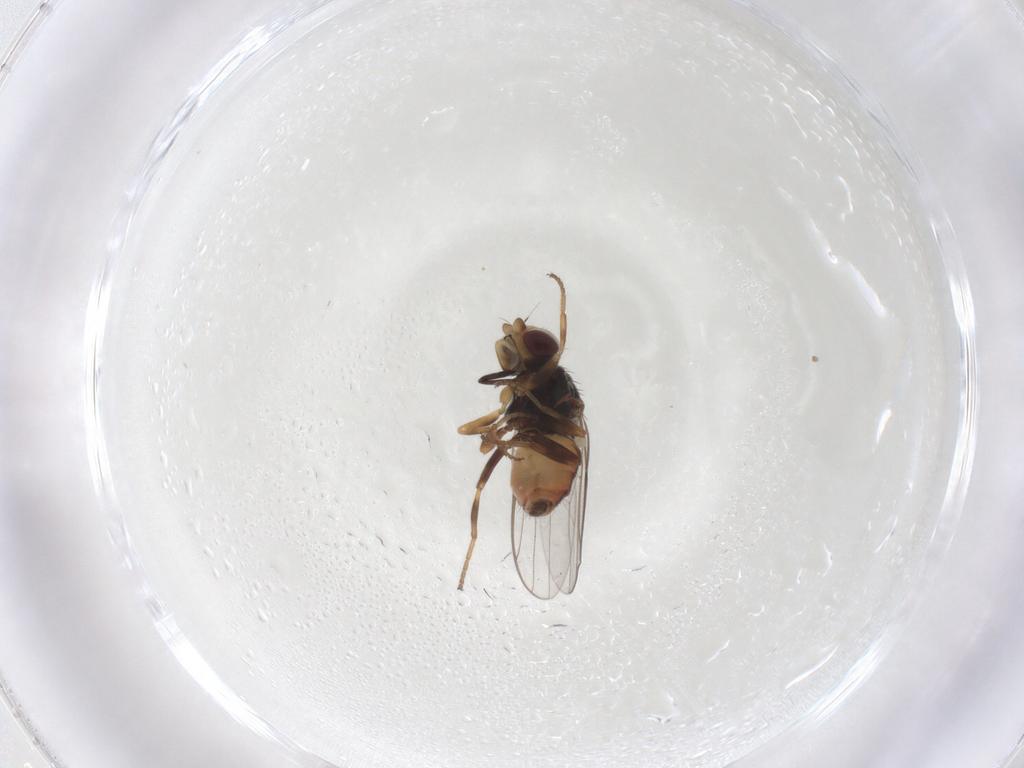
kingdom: Animalia
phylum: Arthropoda
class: Insecta
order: Diptera
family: Chloropidae
